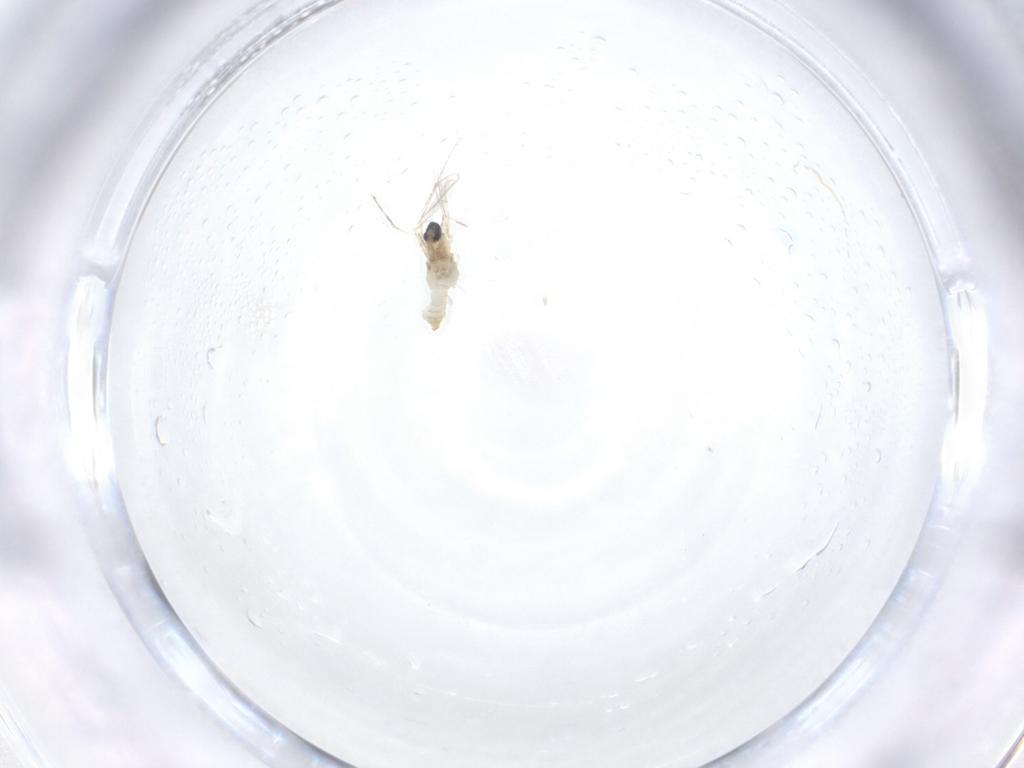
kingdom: Animalia
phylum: Arthropoda
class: Insecta
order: Diptera
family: Cecidomyiidae
